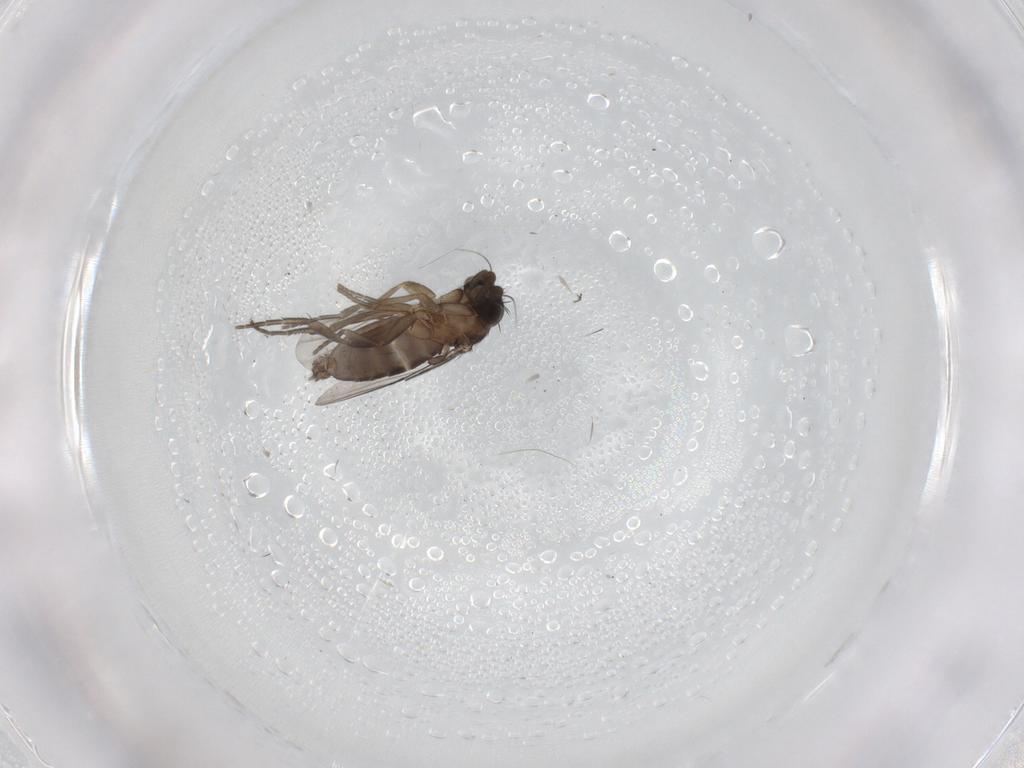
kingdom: Animalia
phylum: Arthropoda
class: Insecta
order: Diptera
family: Phoridae
